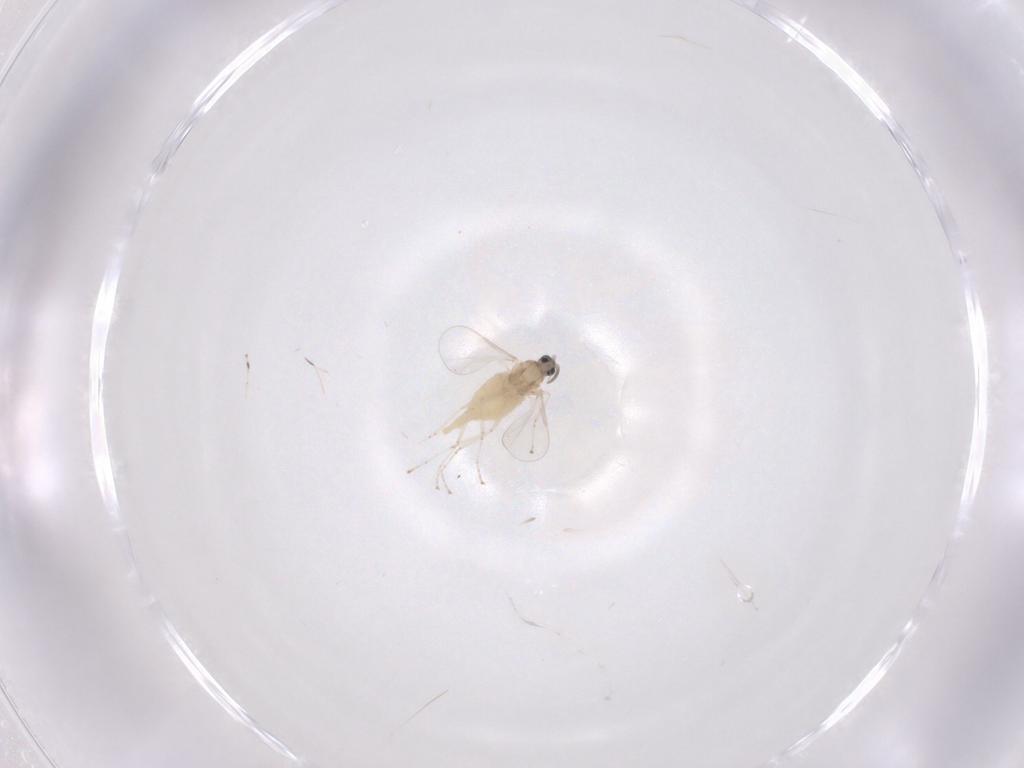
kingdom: Animalia
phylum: Arthropoda
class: Insecta
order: Diptera
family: Cecidomyiidae
